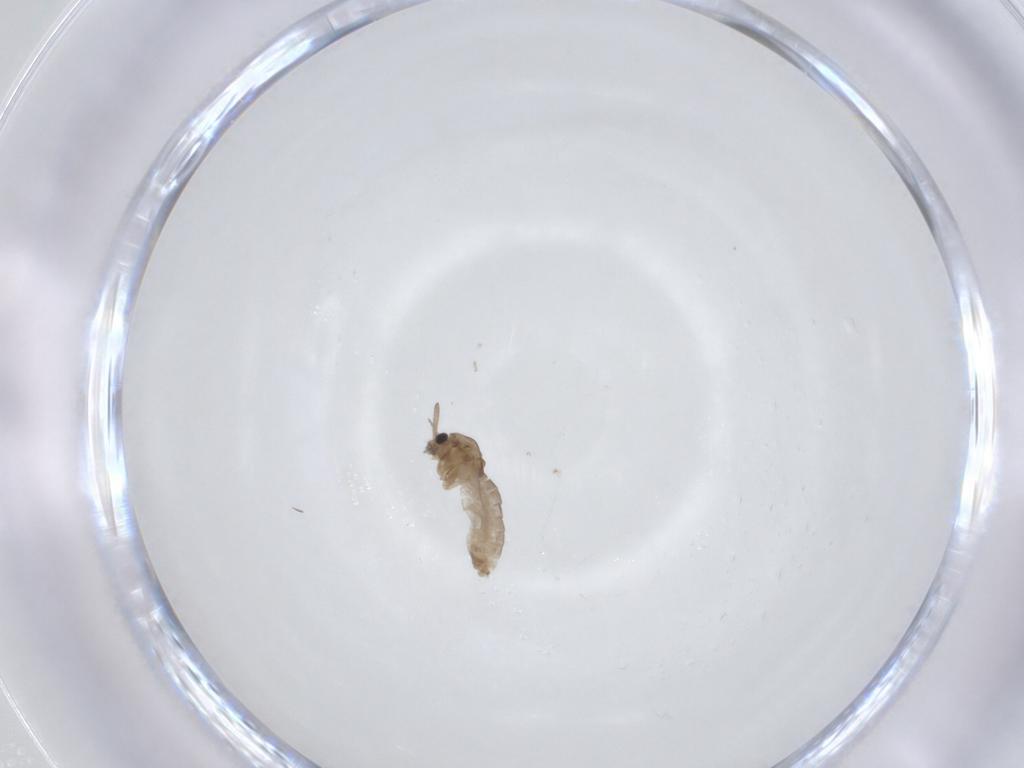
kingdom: Animalia
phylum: Arthropoda
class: Insecta
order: Diptera
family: Chironomidae
